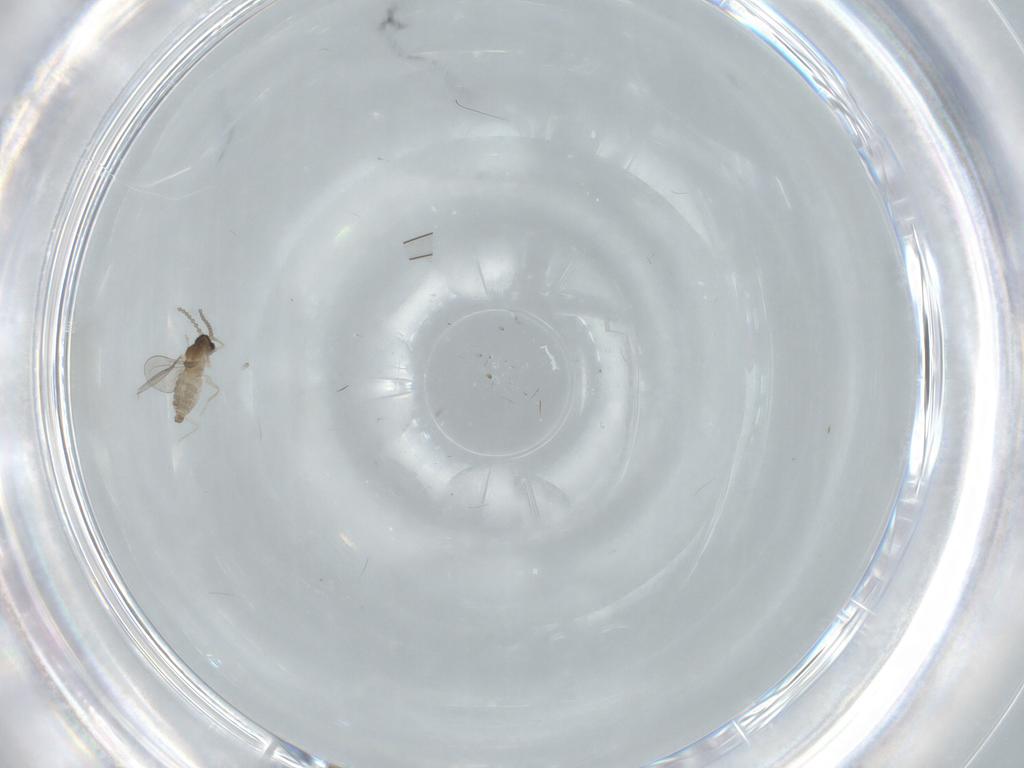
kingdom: Animalia
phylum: Arthropoda
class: Insecta
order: Diptera
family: Cecidomyiidae
